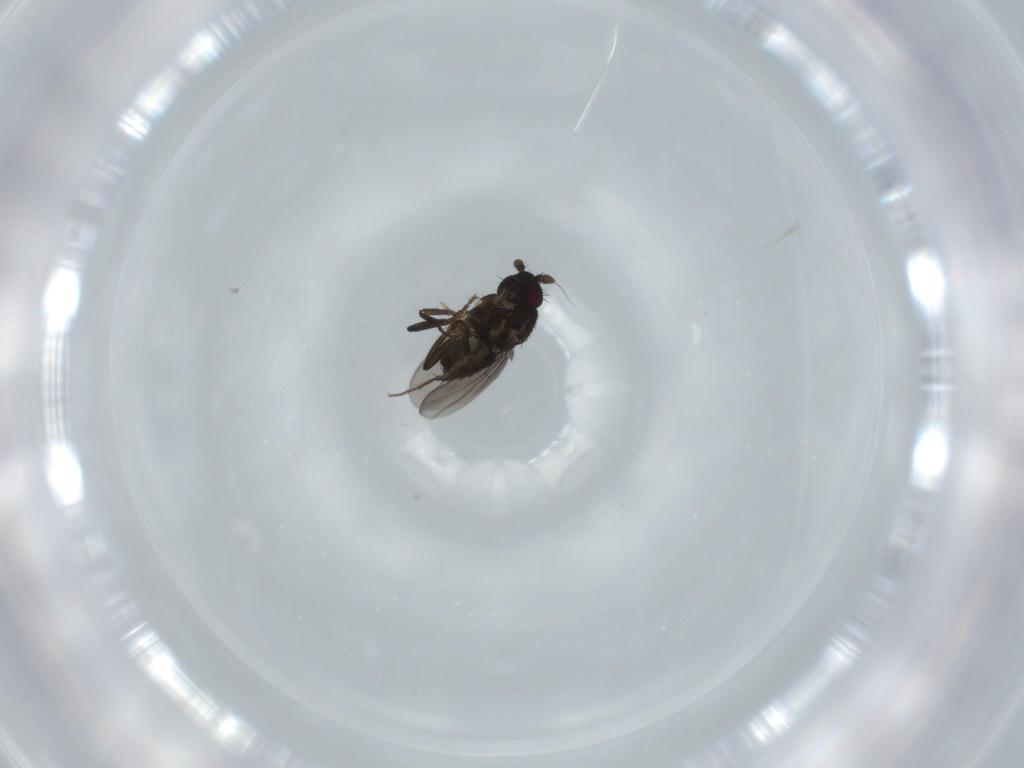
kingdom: Animalia
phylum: Arthropoda
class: Insecta
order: Diptera
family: Sphaeroceridae
